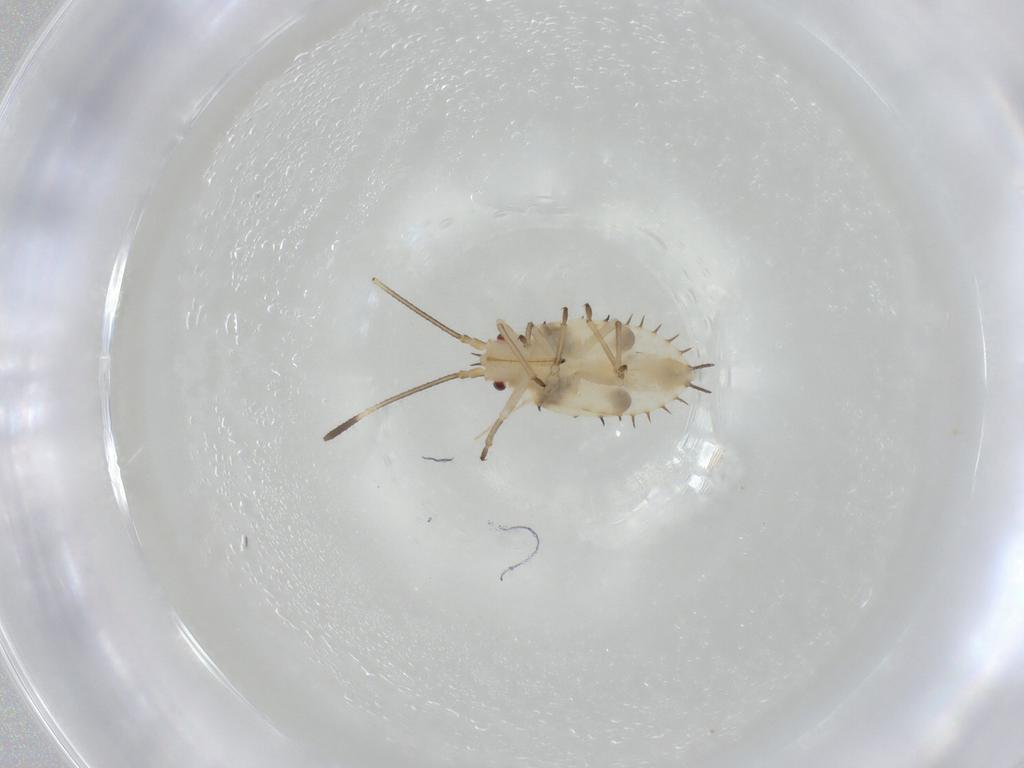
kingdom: Animalia
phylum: Arthropoda
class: Insecta
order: Hemiptera
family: Tingidae
